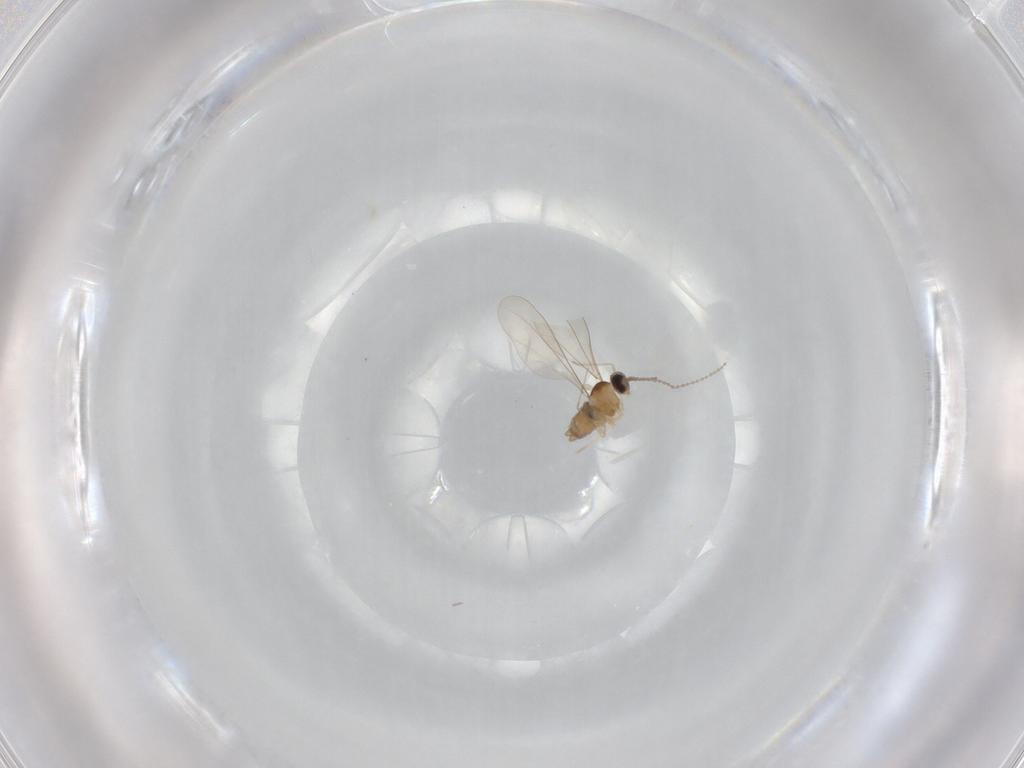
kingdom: Animalia
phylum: Arthropoda
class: Insecta
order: Diptera
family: Cecidomyiidae
